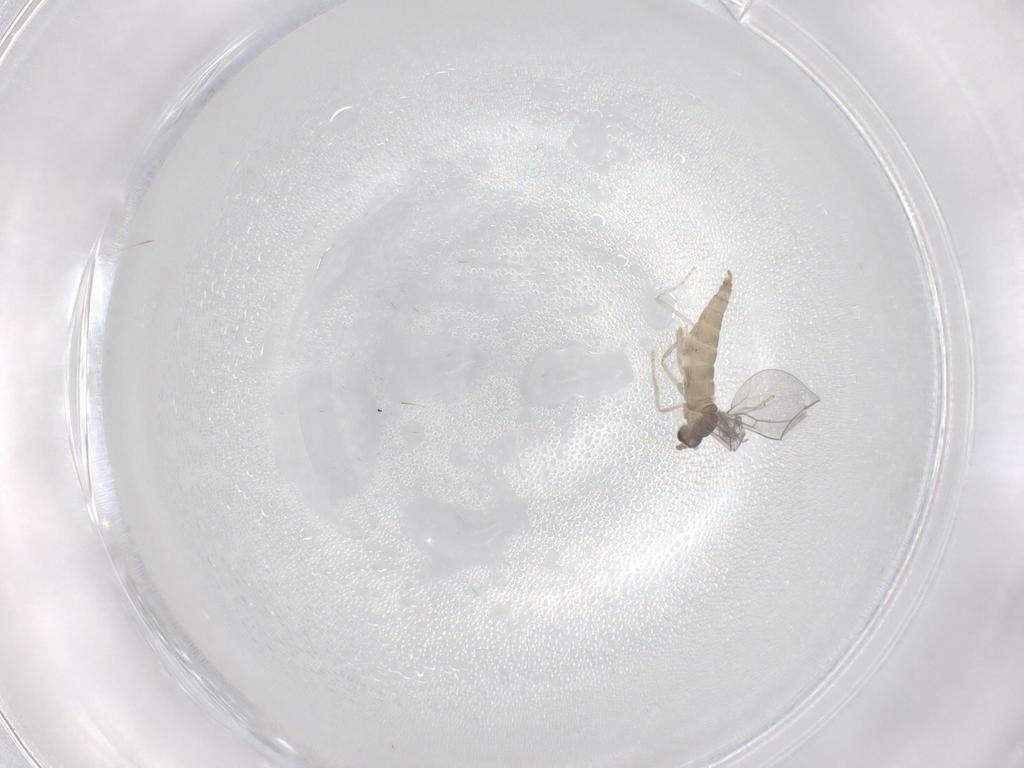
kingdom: Animalia
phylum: Arthropoda
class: Insecta
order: Diptera
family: Cecidomyiidae
